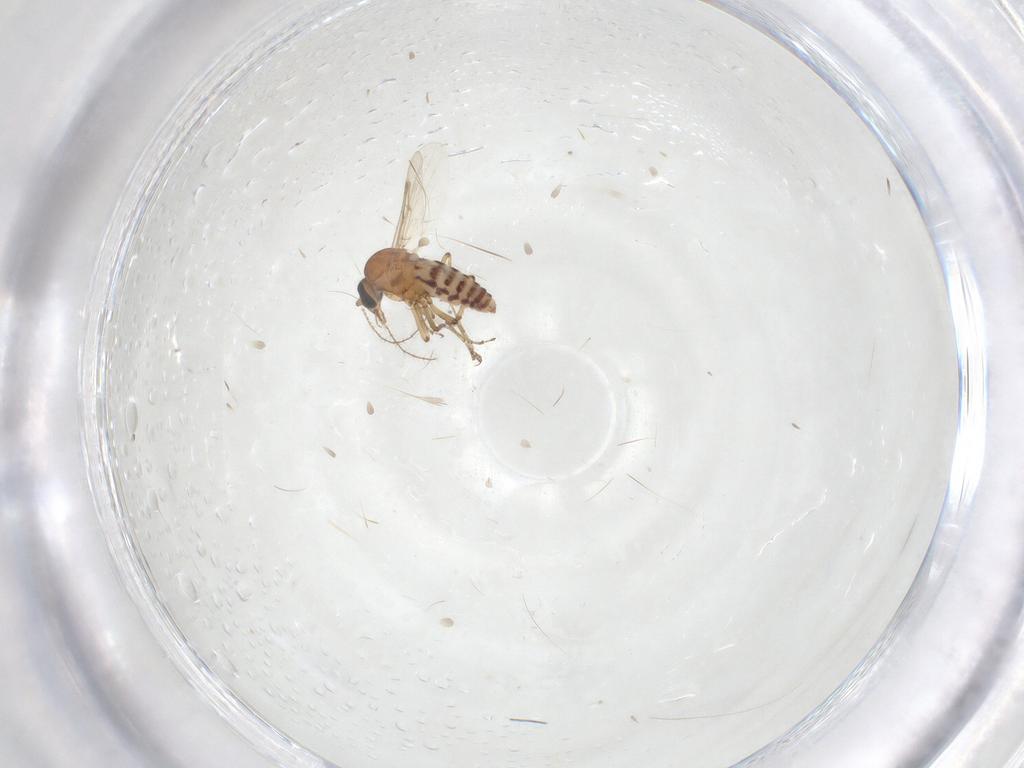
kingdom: Animalia
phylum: Arthropoda
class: Insecta
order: Diptera
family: Ceratopogonidae
